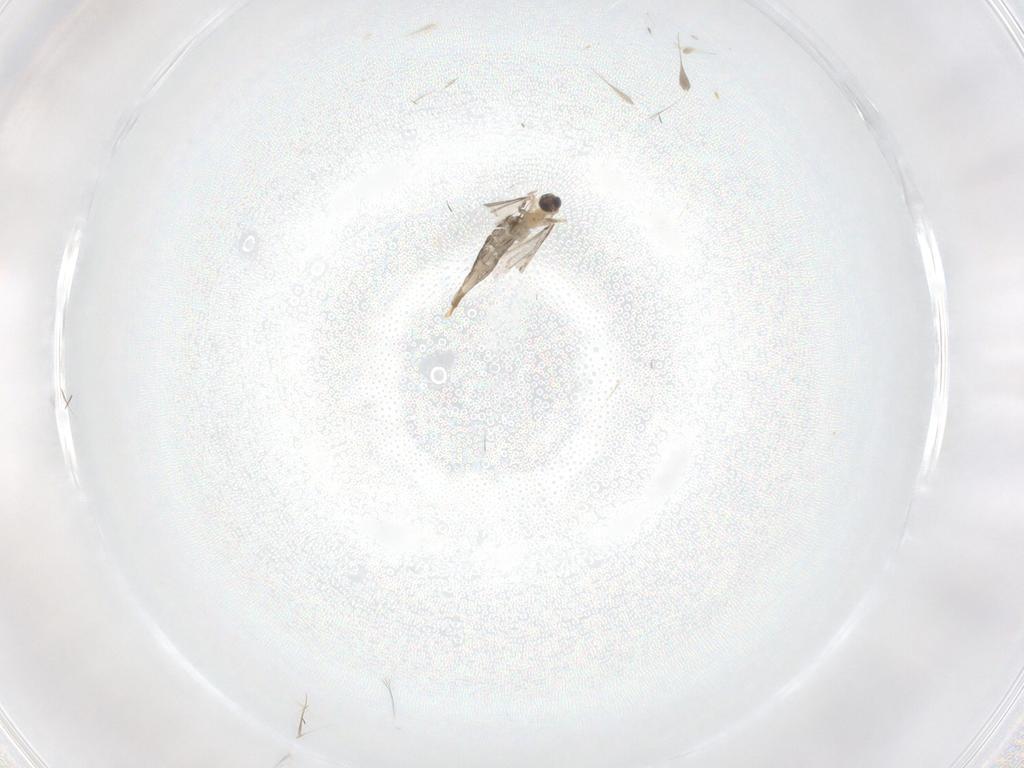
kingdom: Animalia
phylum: Arthropoda
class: Insecta
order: Diptera
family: Cecidomyiidae
